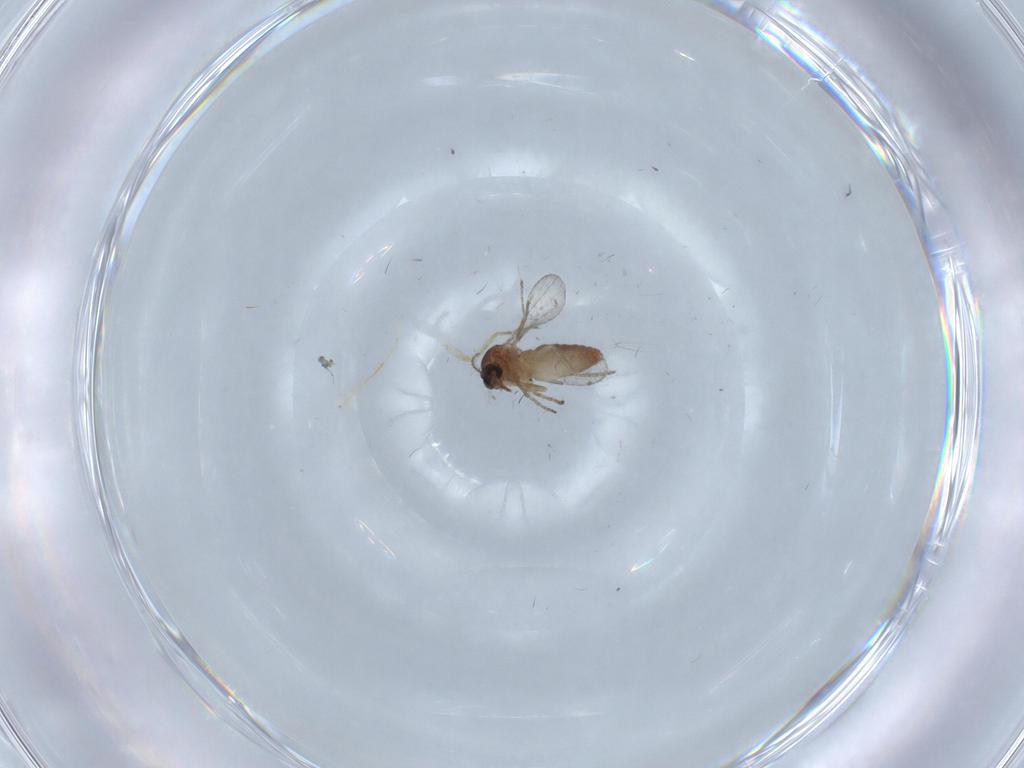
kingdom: Animalia
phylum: Arthropoda
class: Insecta
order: Diptera
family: Ceratopogonidae
